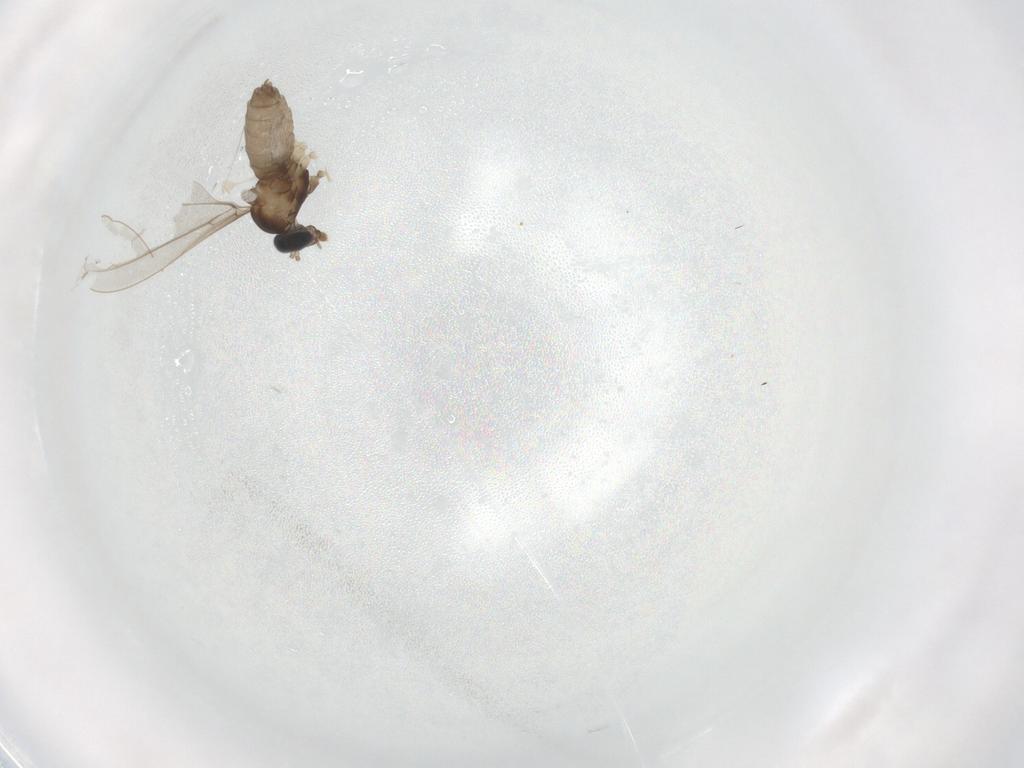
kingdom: Animalia
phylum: Arthropoda
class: Insecta
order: Diptera
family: Cecidomyiidae
